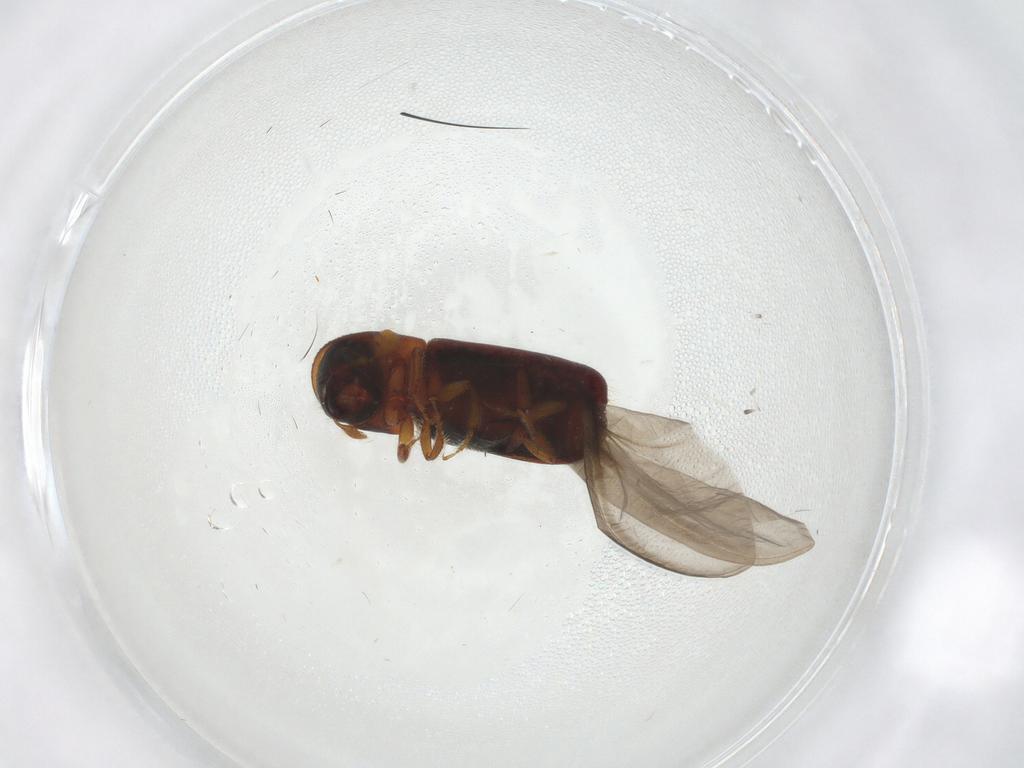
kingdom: Animalia
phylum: Arthropoda
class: Insecta
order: Coleoptera
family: Curculionidae
